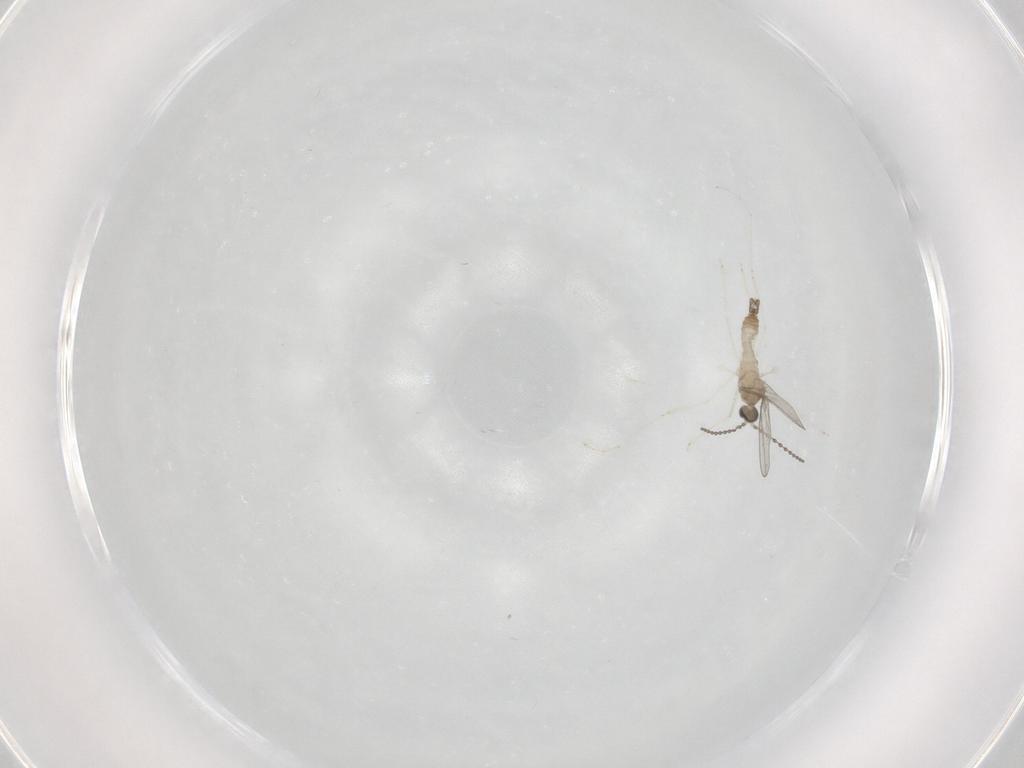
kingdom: Animalia
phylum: Arthropoda
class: Insecta
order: Diptera
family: Cecidomyiidae
